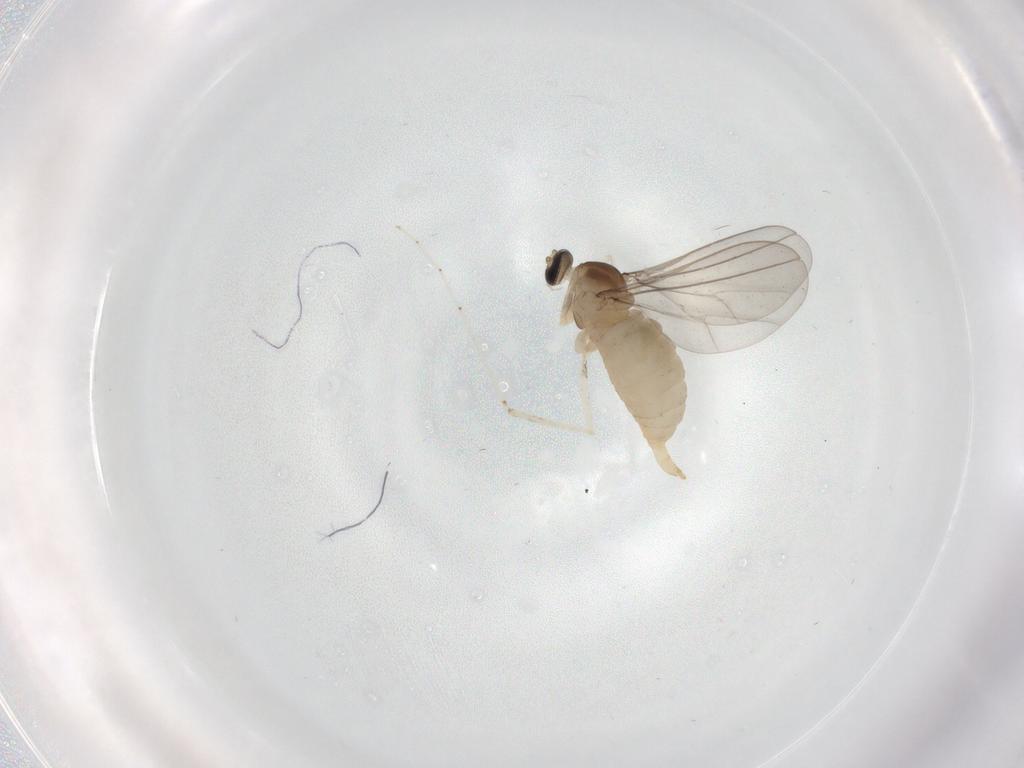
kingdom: Animalia
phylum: Arthropoda
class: Insecta
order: Diptera
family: Cecidomyiidae
